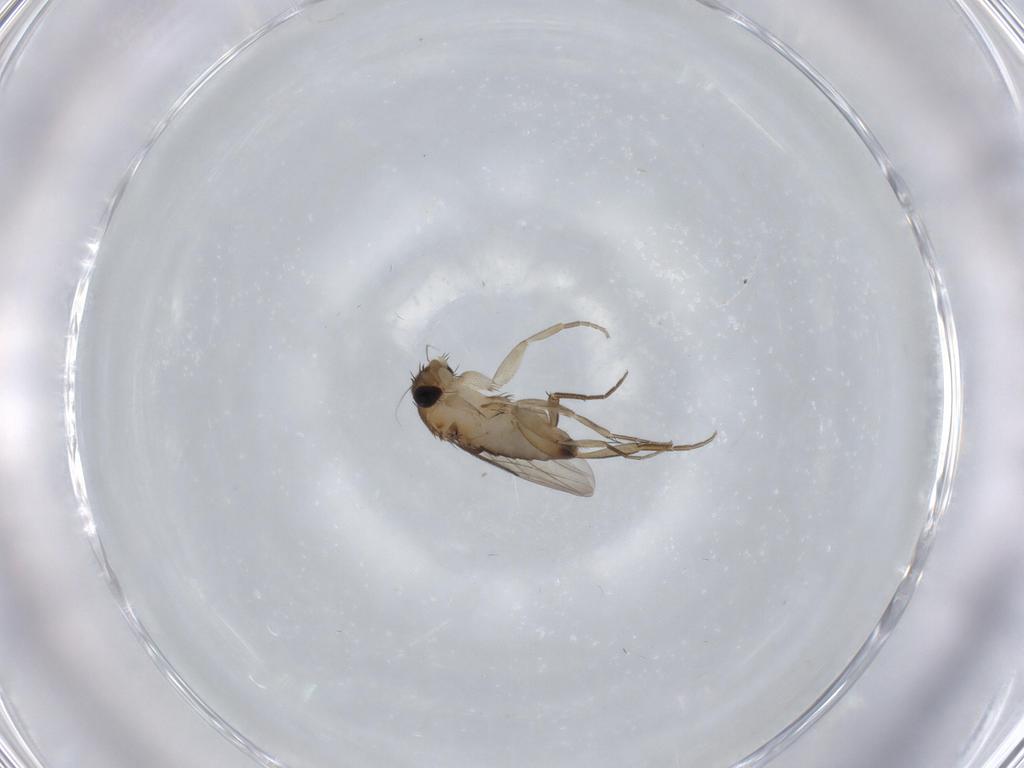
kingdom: Animalia
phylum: Arthropoda
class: Insecta
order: Diptera
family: Phoridae
